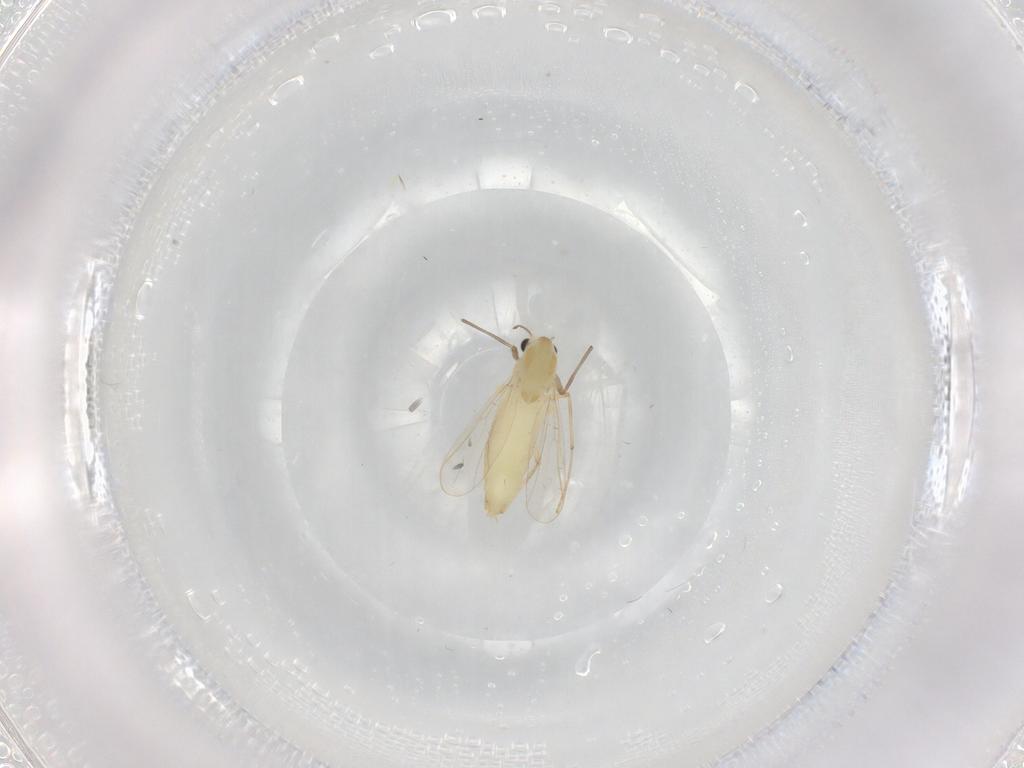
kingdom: Animalia
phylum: Arthropoda
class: Insecta
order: Diptera
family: Chironomidae
